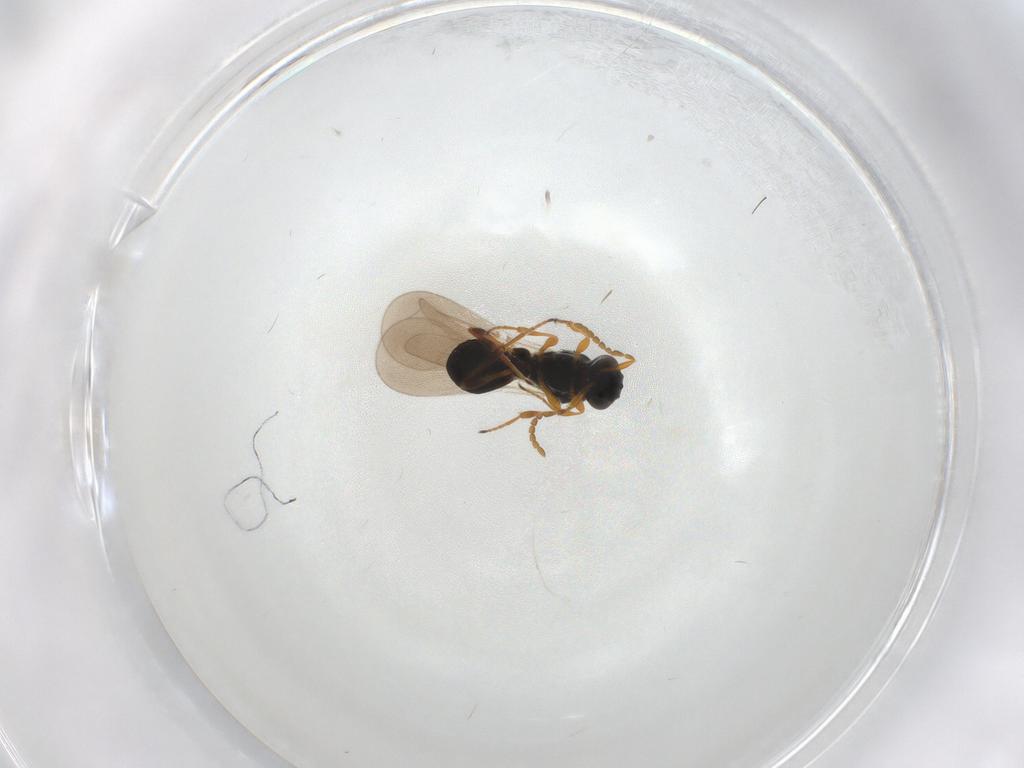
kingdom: Animalia
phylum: Arthropoda
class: Insecta
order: Hymenoptera
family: Platygastridae
